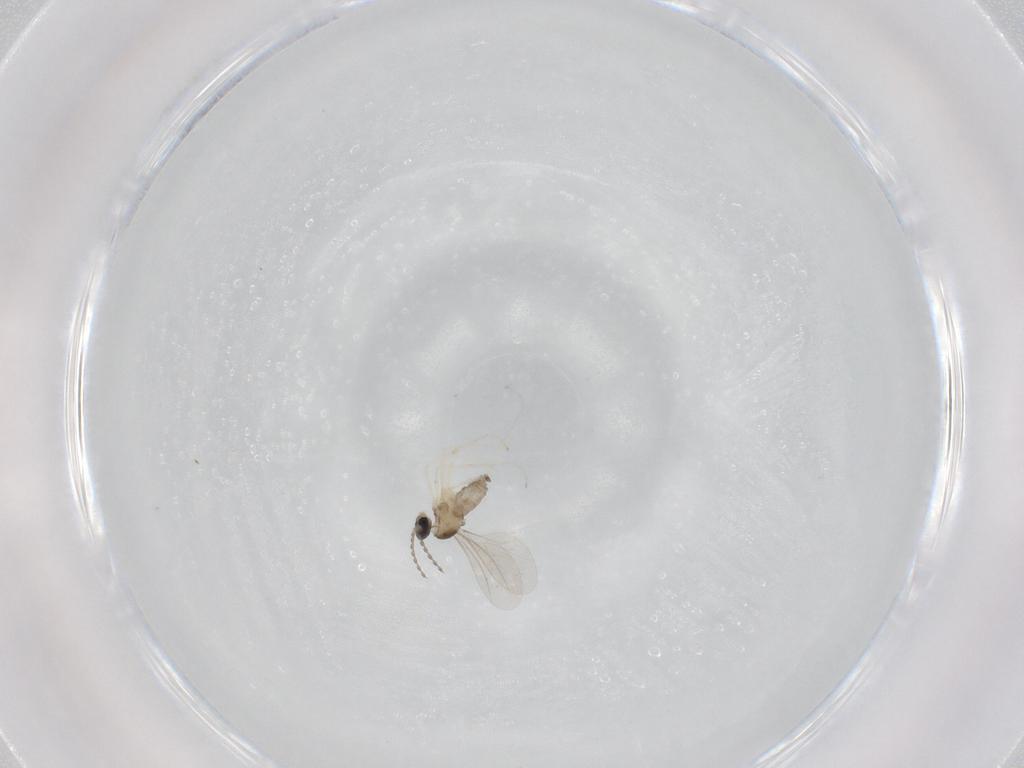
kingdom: Animalia
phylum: Arthropoda
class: Insecta
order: Diptera
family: Cecidomyiidae
